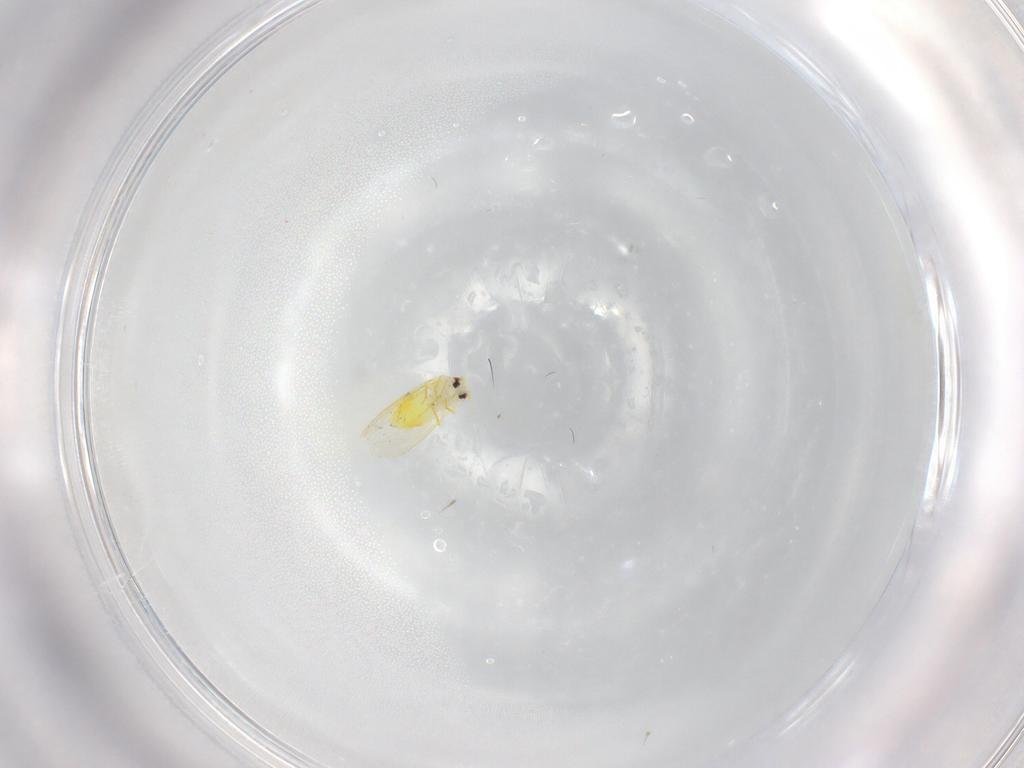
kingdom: Animalia
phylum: Arthropoda
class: Insecta
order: Hemiptera
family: Aleyrodidae
